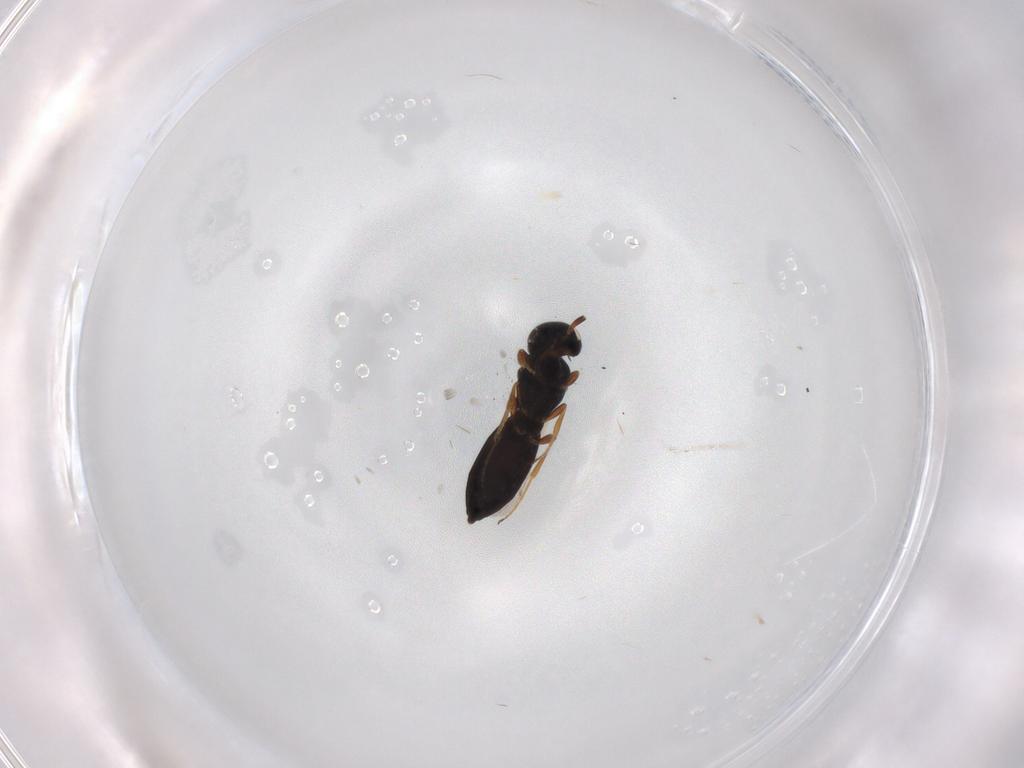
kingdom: Animalia
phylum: Arthropoda
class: Insecta
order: Hymenoptera
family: Scelionidae
